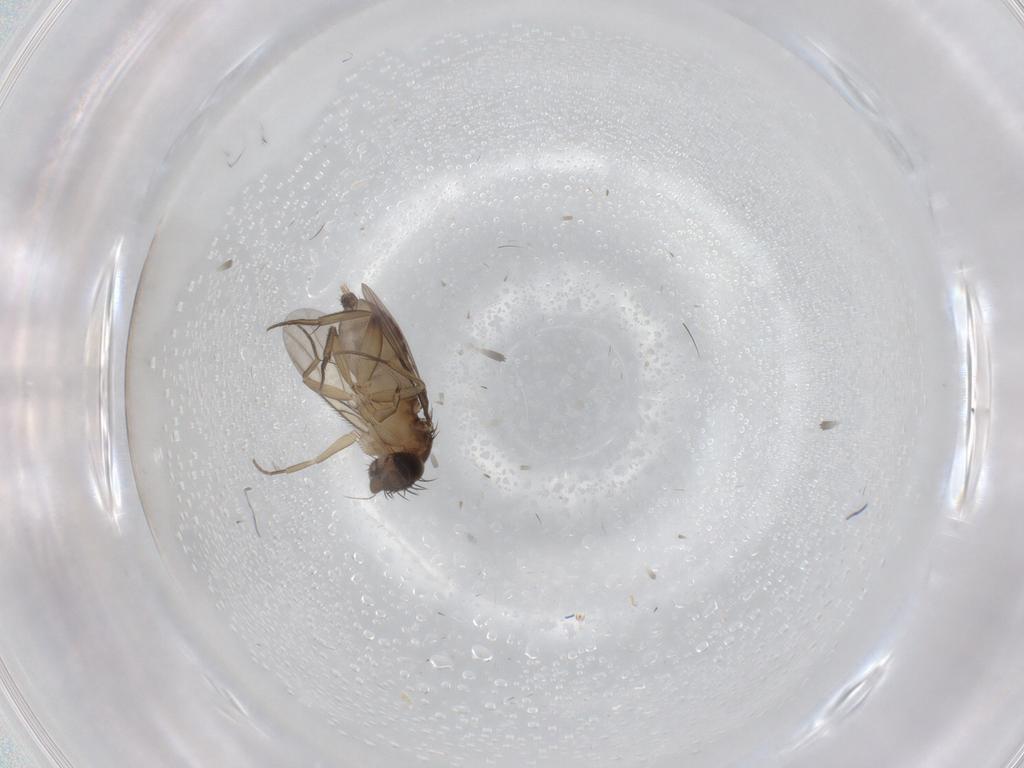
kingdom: Animalia
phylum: Arthropoda
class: Insecta
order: Diptera
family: Phoridae
